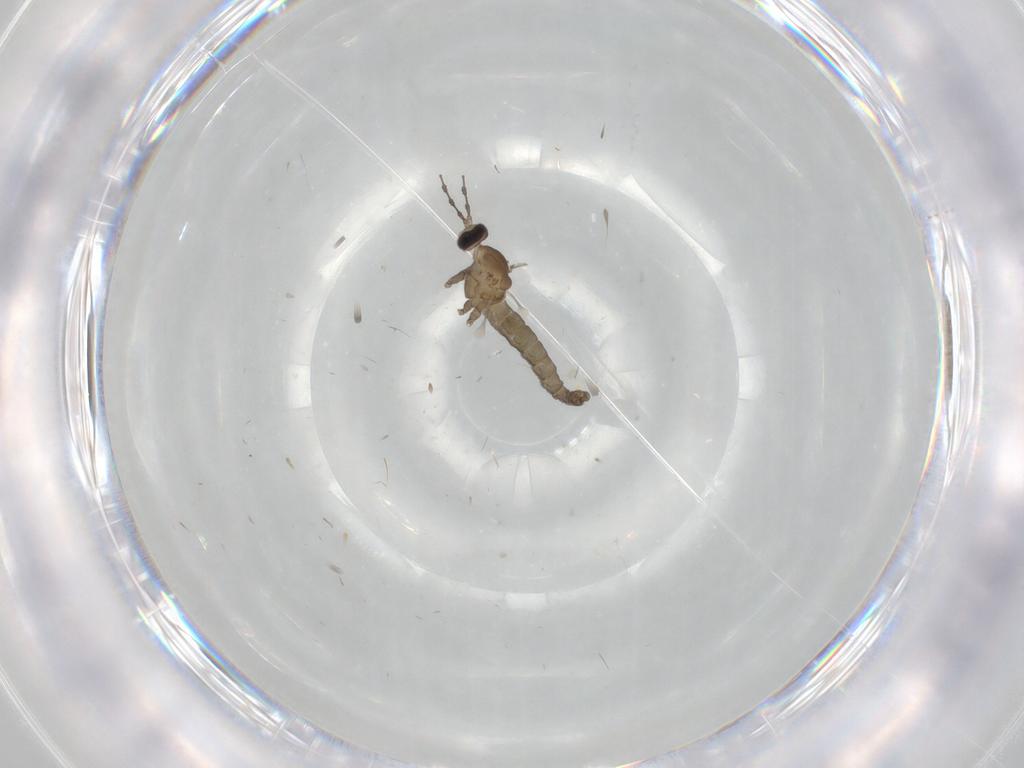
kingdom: Animalia
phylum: Arthropoda
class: Insecta
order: Diptera
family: Cecidomyiidae
